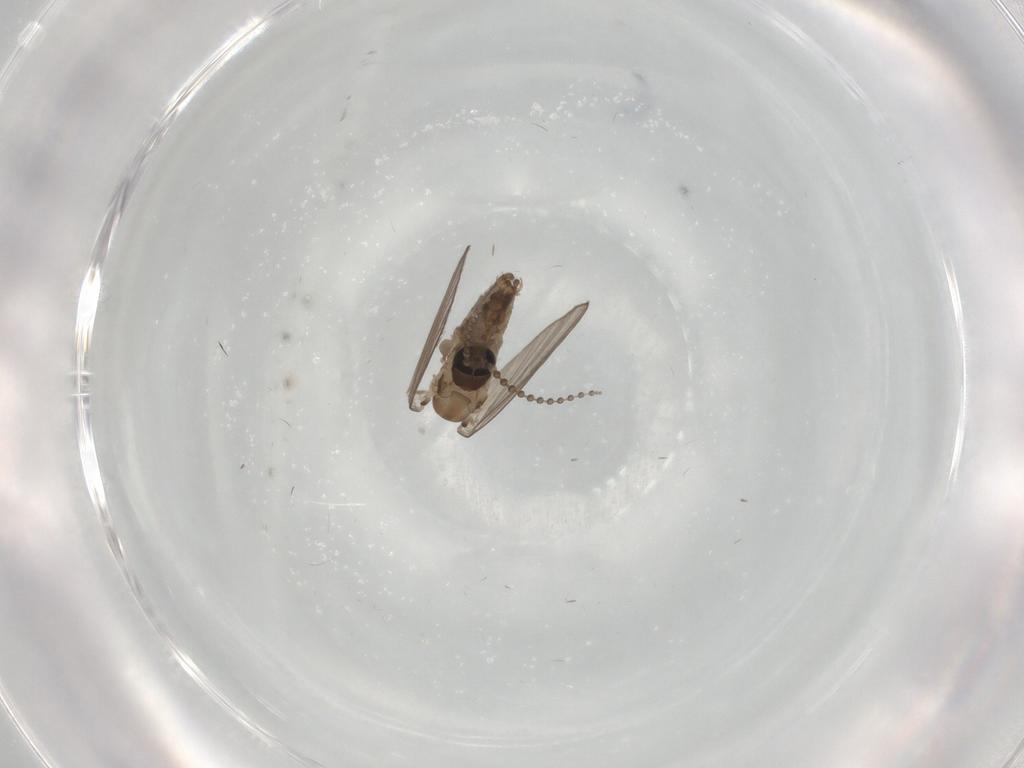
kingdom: Animalia
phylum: Arthropoda
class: Insecta
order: Diptera
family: Psychodidae
